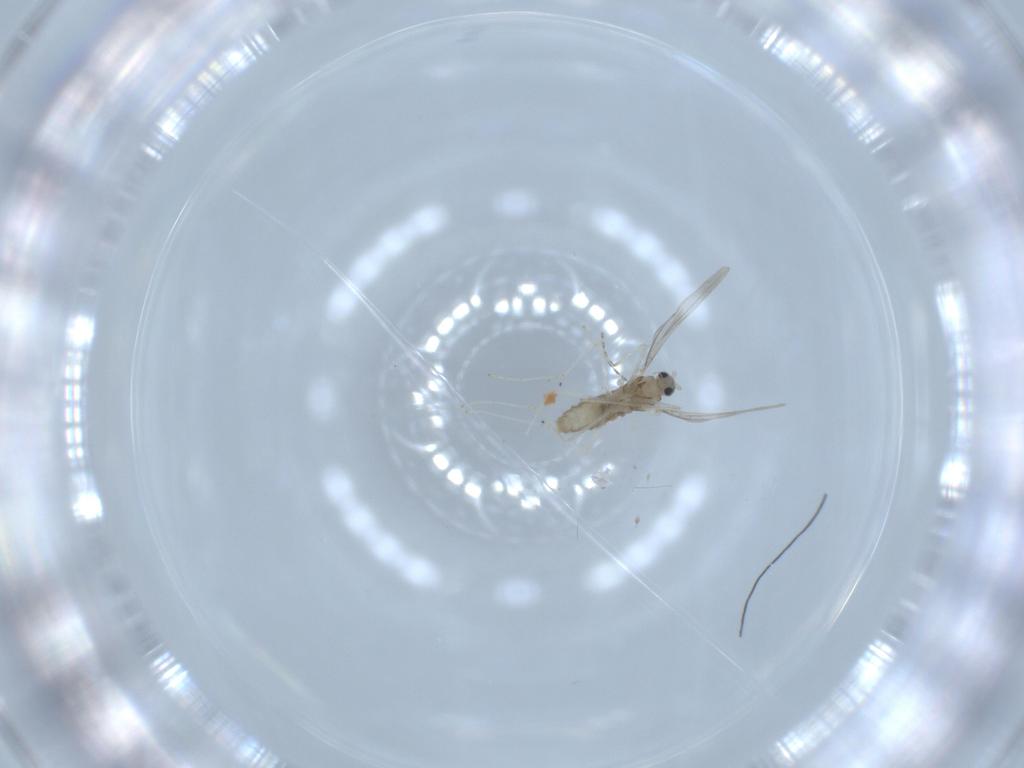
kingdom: Animalia
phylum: Arthropoda
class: Insecta
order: Diptera
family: Cecidomyiidae
